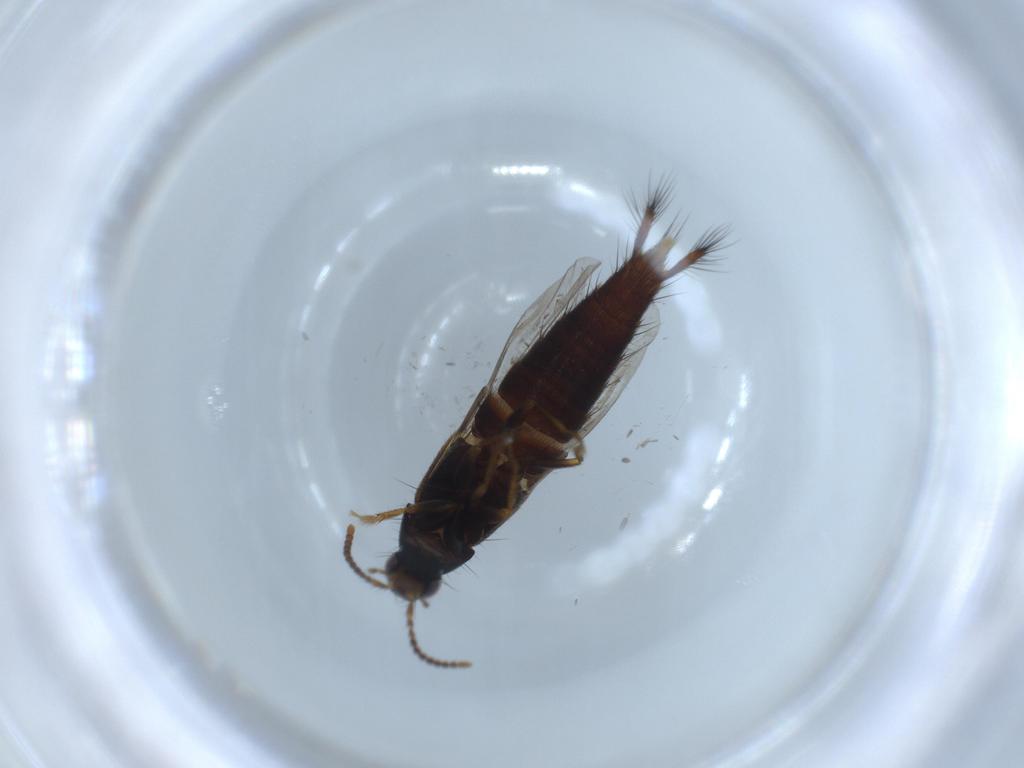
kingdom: Animalia
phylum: Arthropoda
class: Insecta
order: Coleoptera
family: Staphylinidae
